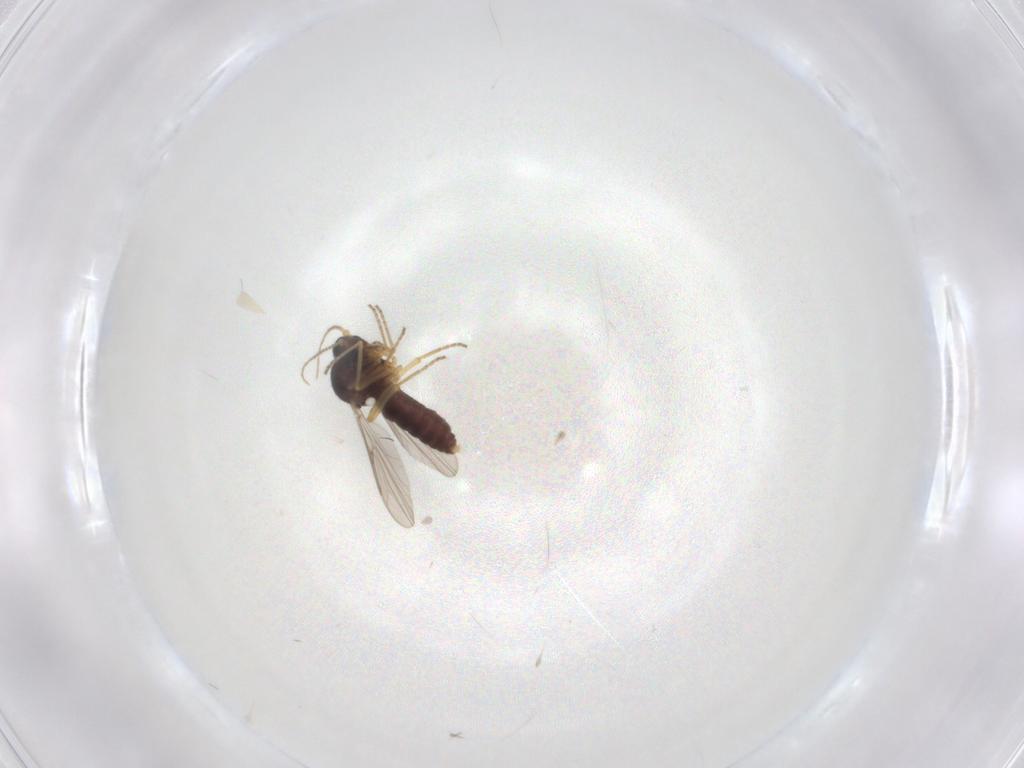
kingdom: Animalia
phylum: Arthropoda
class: Insecta
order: Diptera
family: Ceratopogonidae
